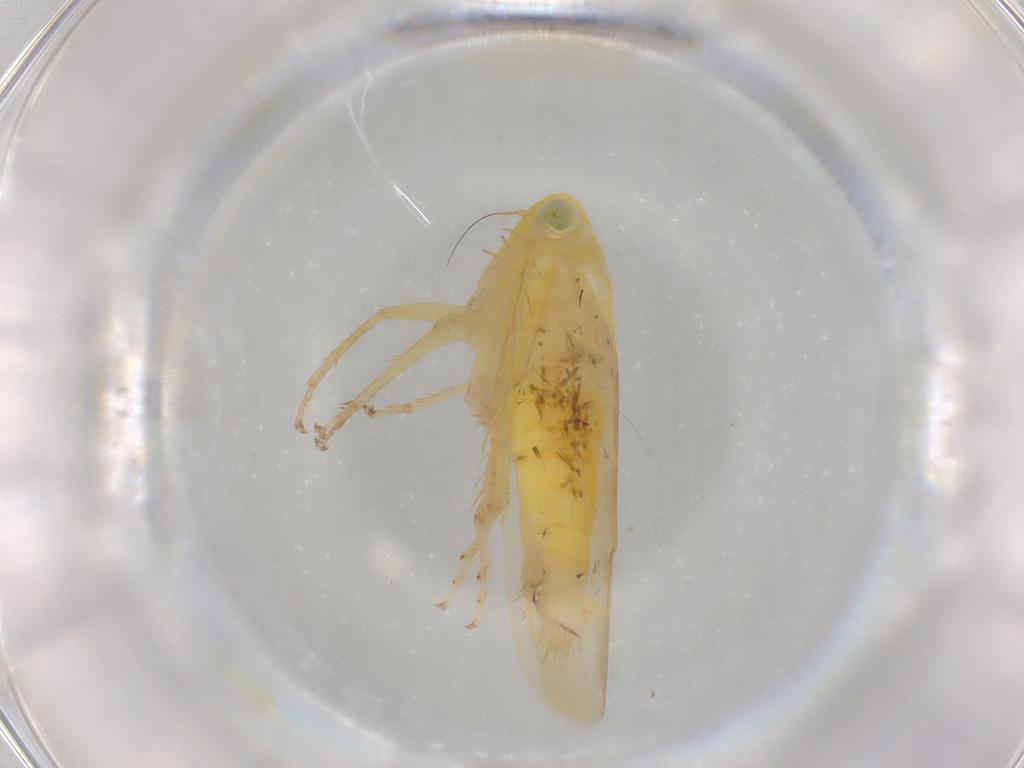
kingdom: Animalia
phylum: Arthropoda
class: Insecta
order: Hemiptera
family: Cicadellidae
